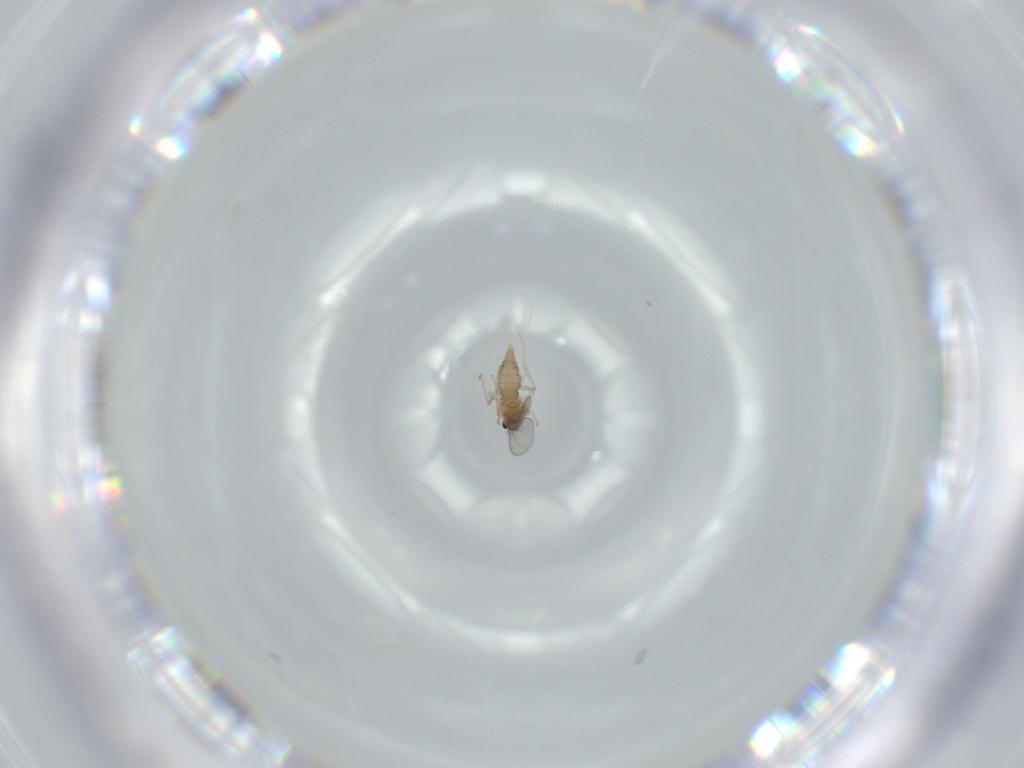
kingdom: Animalia
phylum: Arthropoda
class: Insecta
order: Diptera
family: Cecidomyiidae
